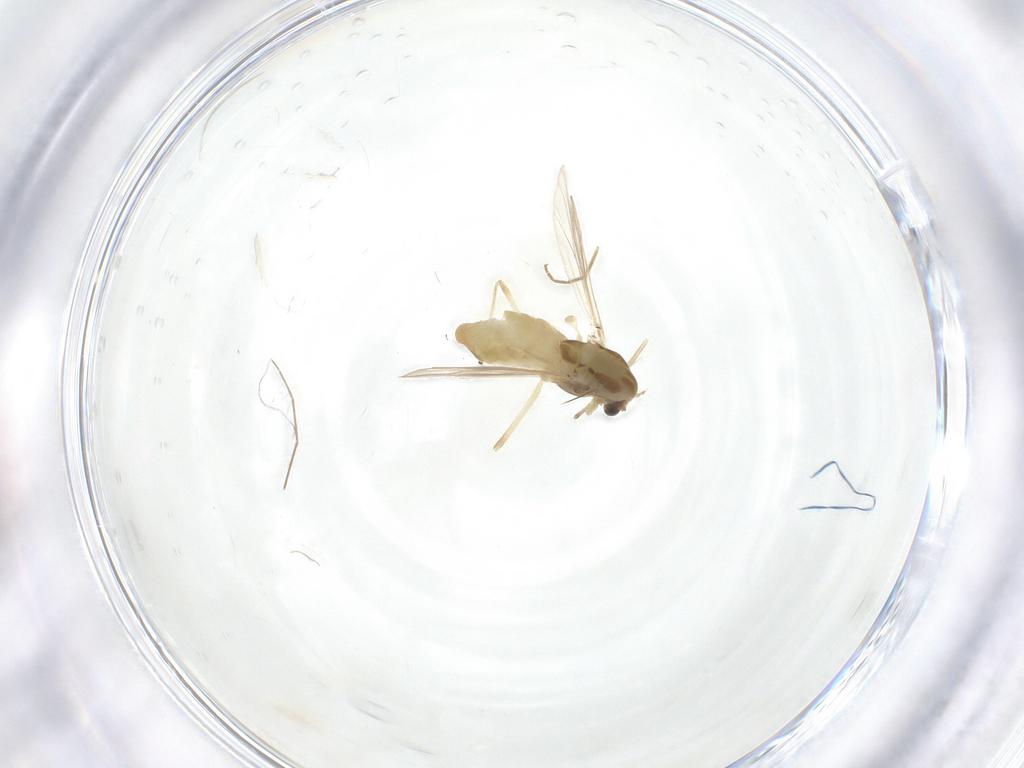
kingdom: Animalia
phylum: Arthropoda
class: Insecta
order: Diptera
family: Chironomidae
